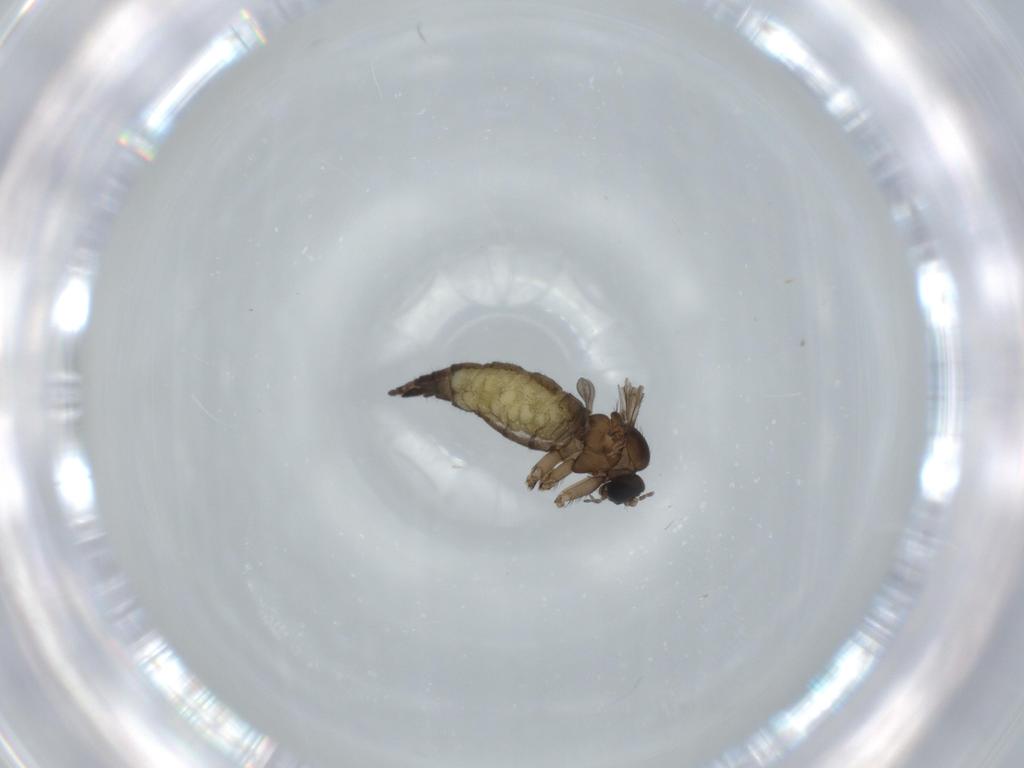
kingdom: Animalia
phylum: Arthropoda
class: Insecta
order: Diptera
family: Sciaridae
